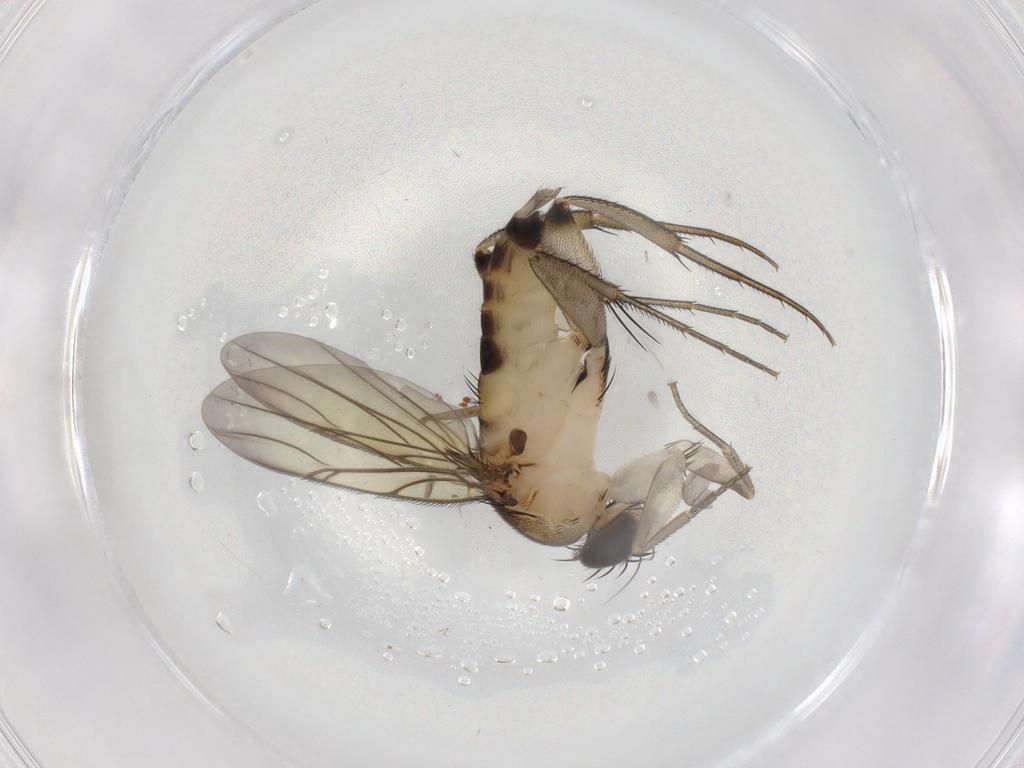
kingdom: Animalia
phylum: Arthropoda
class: Insecta
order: Diptera
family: Phoridae
